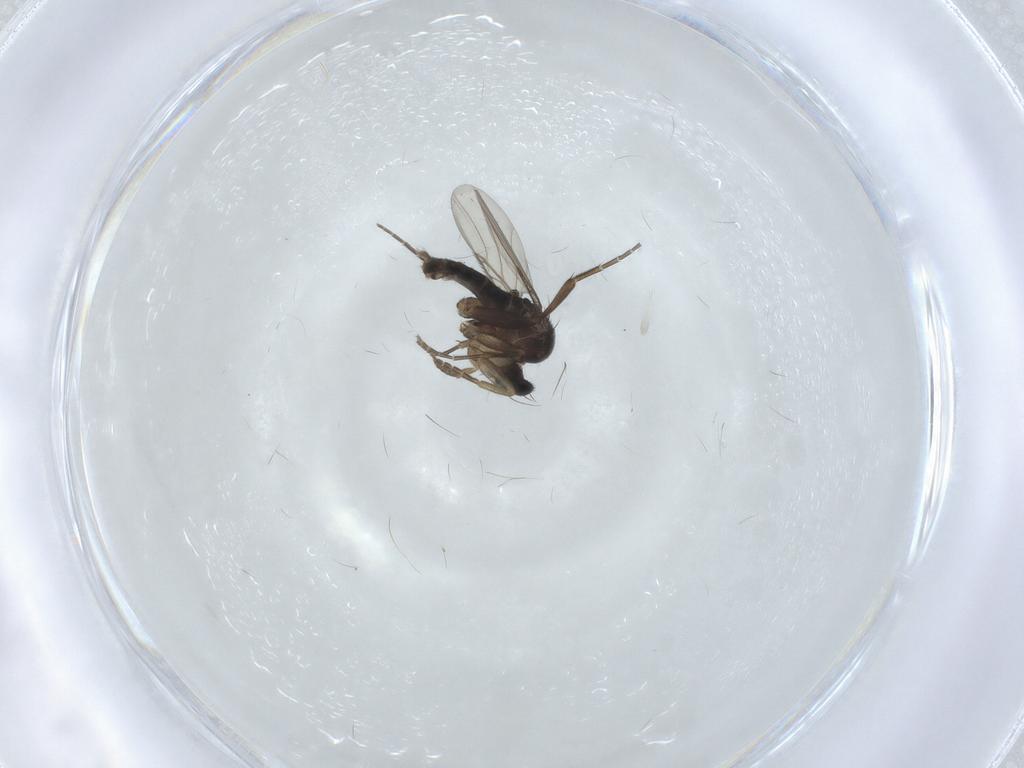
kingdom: Animalia
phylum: Arthropoda
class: Insecta
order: Diptera
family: Phoridae
